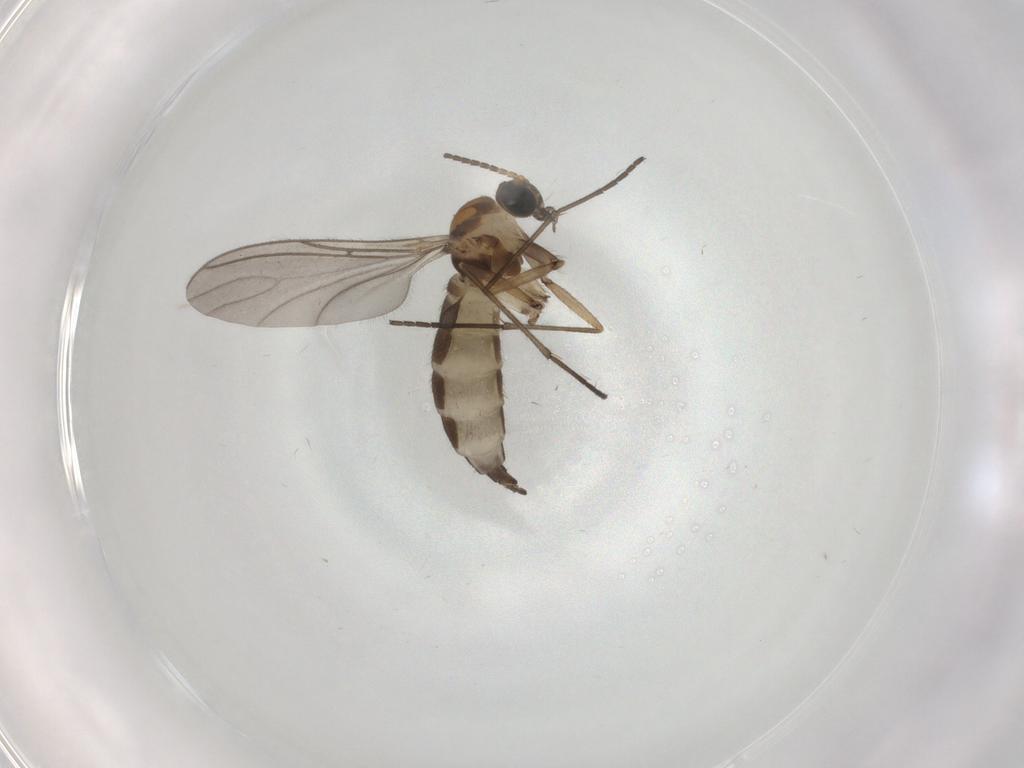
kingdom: Animalia
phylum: Arthropoda
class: Insecta
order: Diptera
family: Sciaridae
